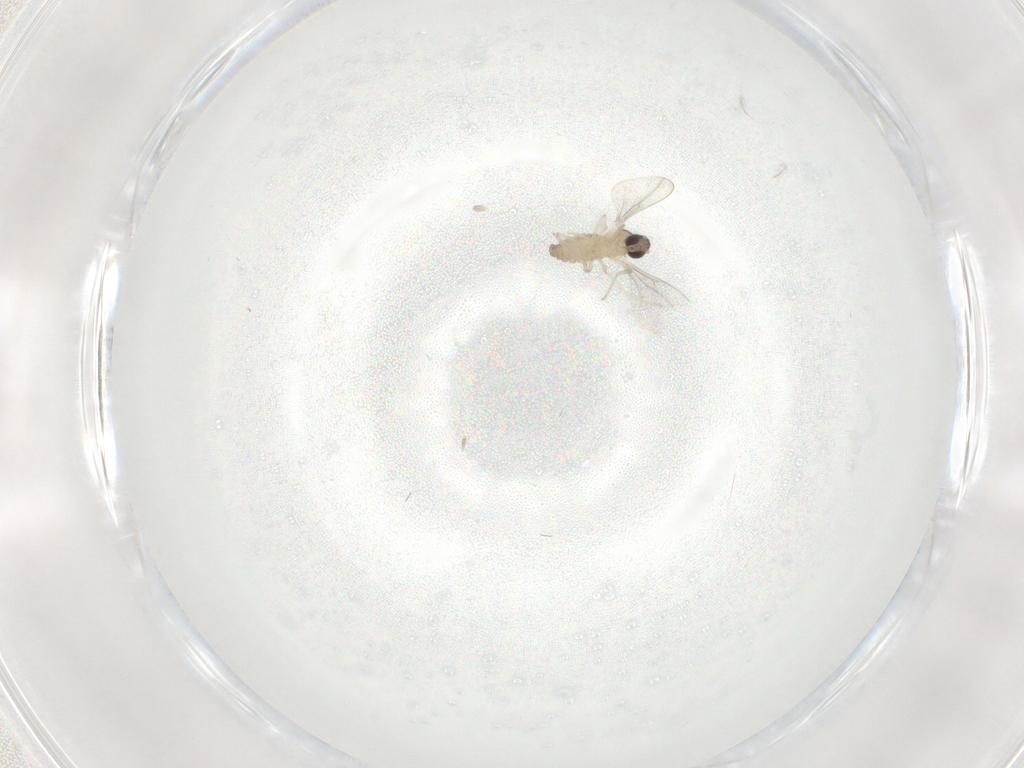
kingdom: Animalia
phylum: Arthropoda
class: Insecta
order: Diptera
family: Cecidomyiidae
